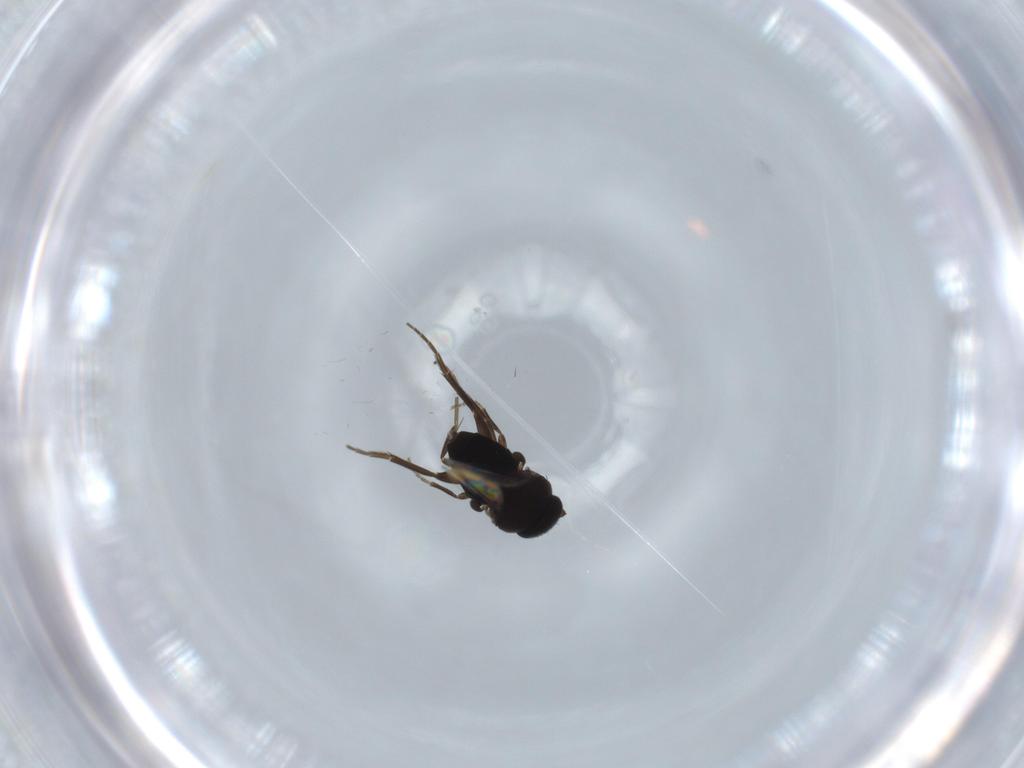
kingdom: Animalia
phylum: Arthropoda
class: Insecta
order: Diptera
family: Phoridae
